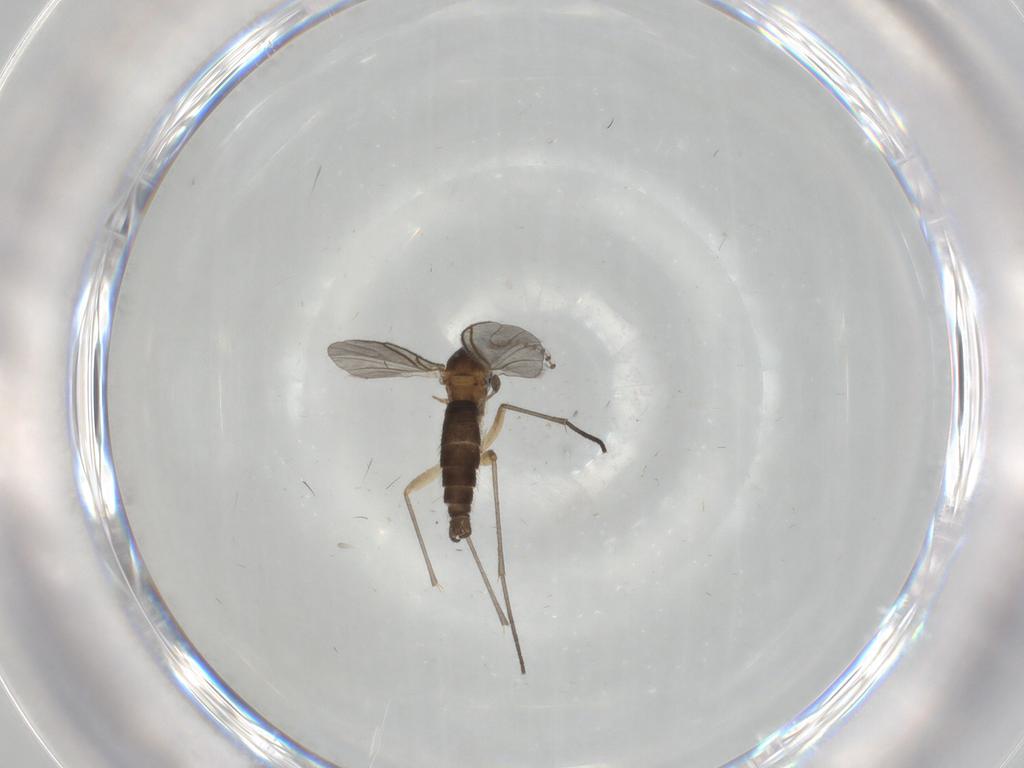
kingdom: Animalia
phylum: Arthropoda
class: Insecta
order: Diptera
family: Sciaridae
